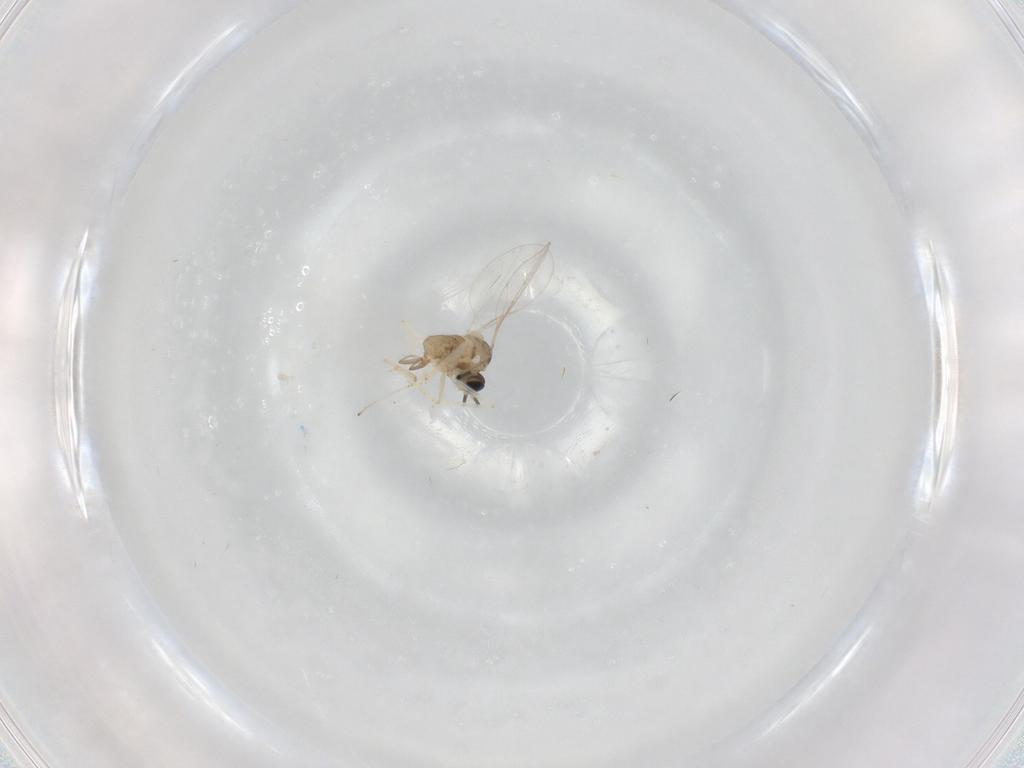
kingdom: Animalia
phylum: Arthropoda
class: Insecta
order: Diptera
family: Cecidomyiidae
